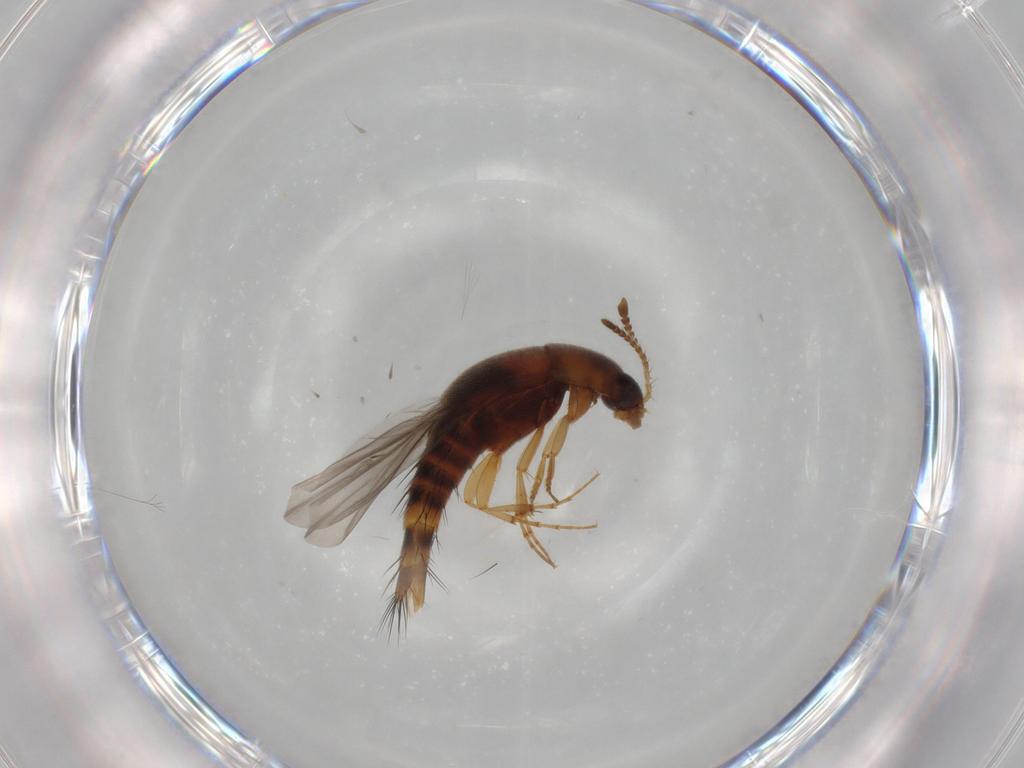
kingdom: Animalia
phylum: Arthropoda
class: Insecta
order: Coleoptera
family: Staphylinidae
